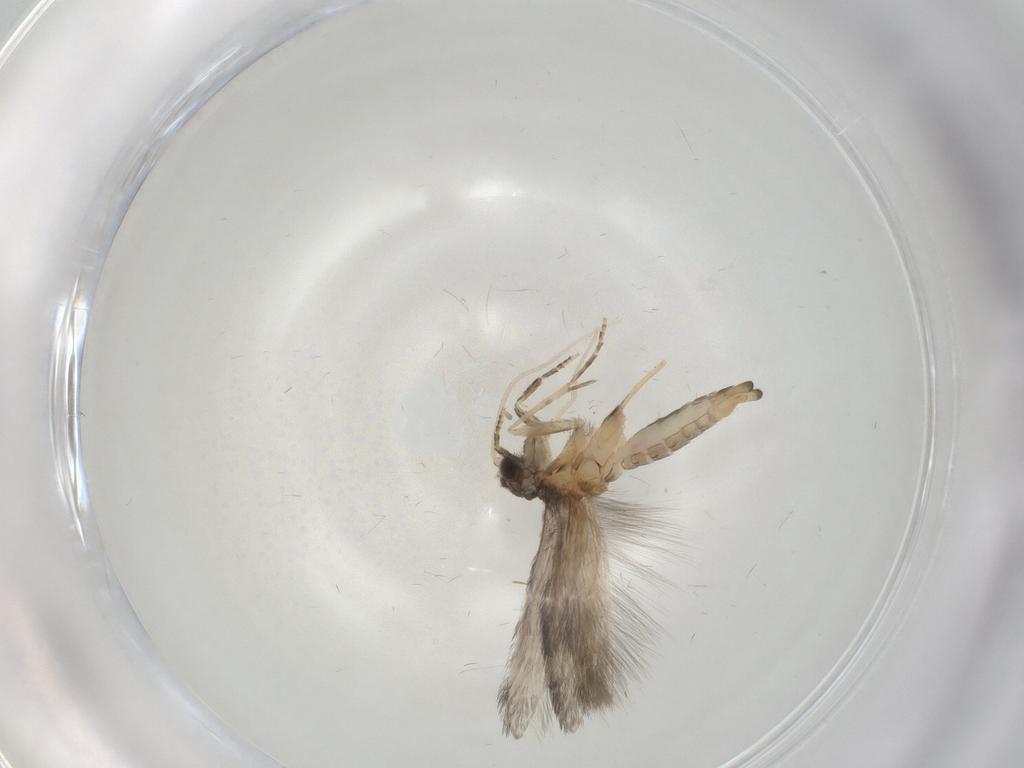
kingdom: Animalia
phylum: Arthropoda
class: Insecta
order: Trichoptera
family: Hydroptilidae
